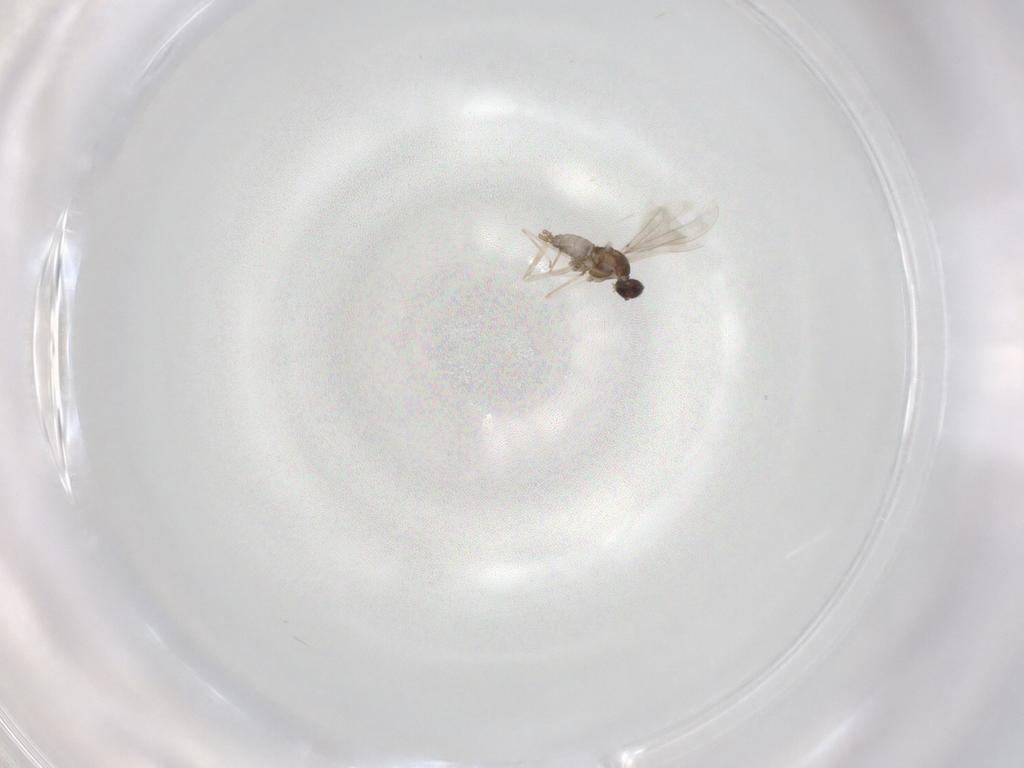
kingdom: Animalia
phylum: Arthropoda
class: Insecta
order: Diptera
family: Cecidomyiidae
